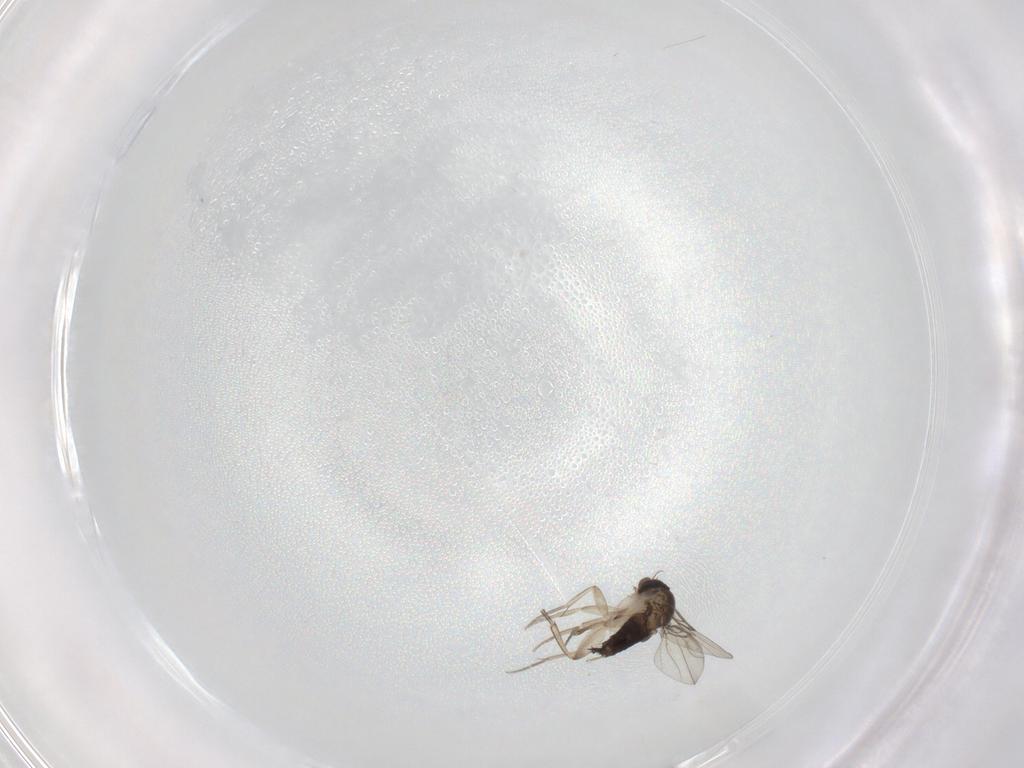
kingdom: Animalia
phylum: Arthropoda
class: Insecta
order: Diptera
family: Phoridae
